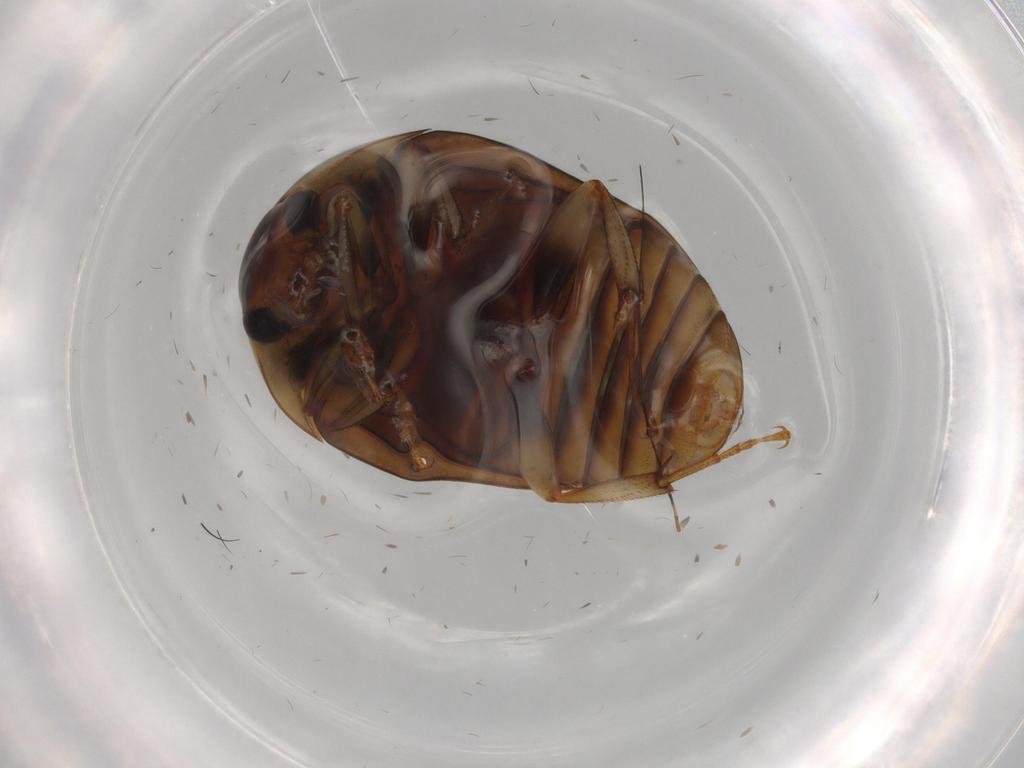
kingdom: Animalia
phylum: Arthropoda
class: Insecta
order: Coleoptera
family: Nitidulidae
